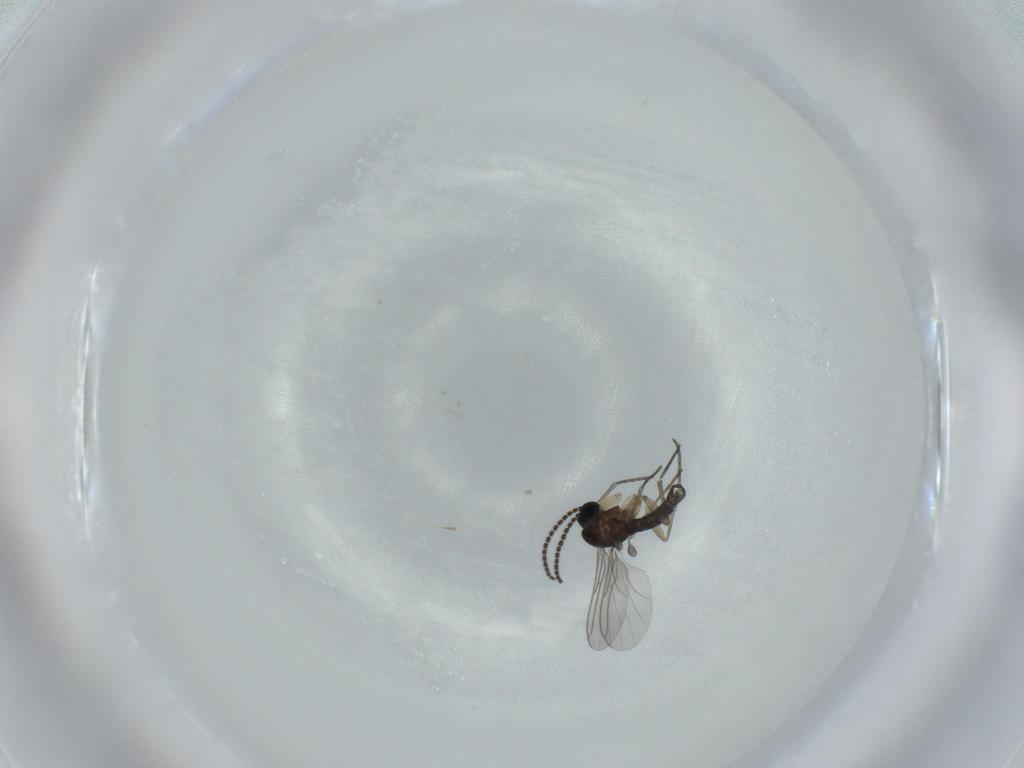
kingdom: Animalia
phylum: Arthropoda
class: Insecta
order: Diptera
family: Sciaridae
